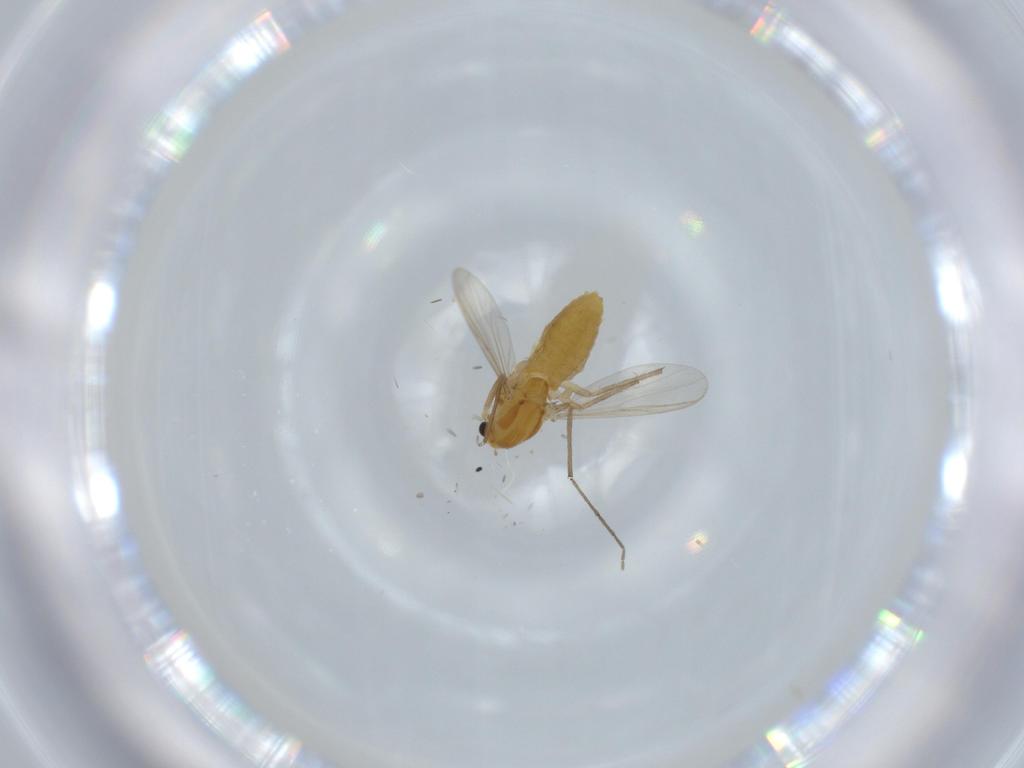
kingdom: Animalia
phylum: Arthropoda
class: Insecta
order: Diptera
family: Chironomidae
